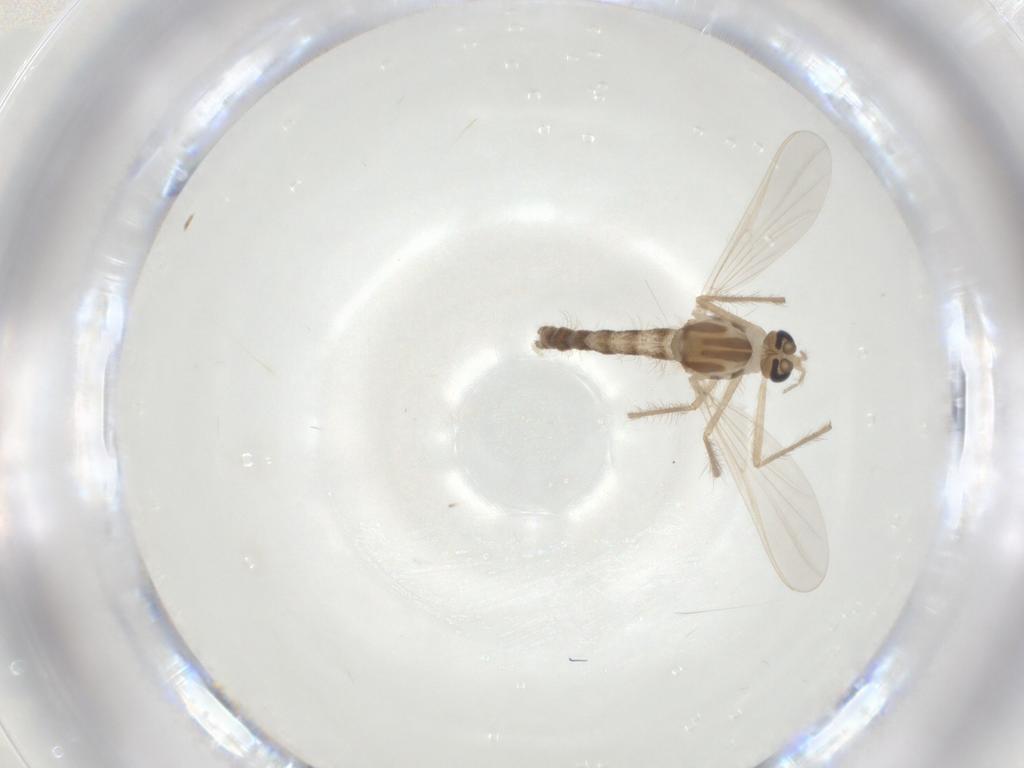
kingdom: Animalia
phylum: Arthropoda
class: Insecta
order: Diptera
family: Chironomidae
